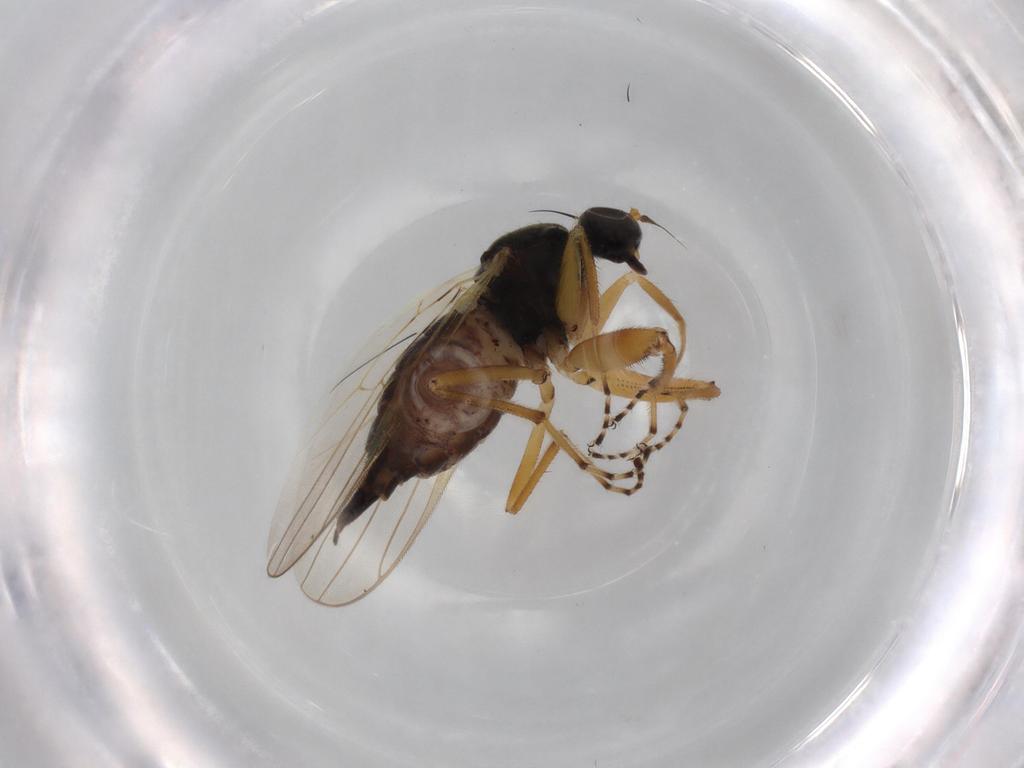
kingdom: Animalia
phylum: Arthropoda
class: Insecta
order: Diptera
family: Hybotidae
